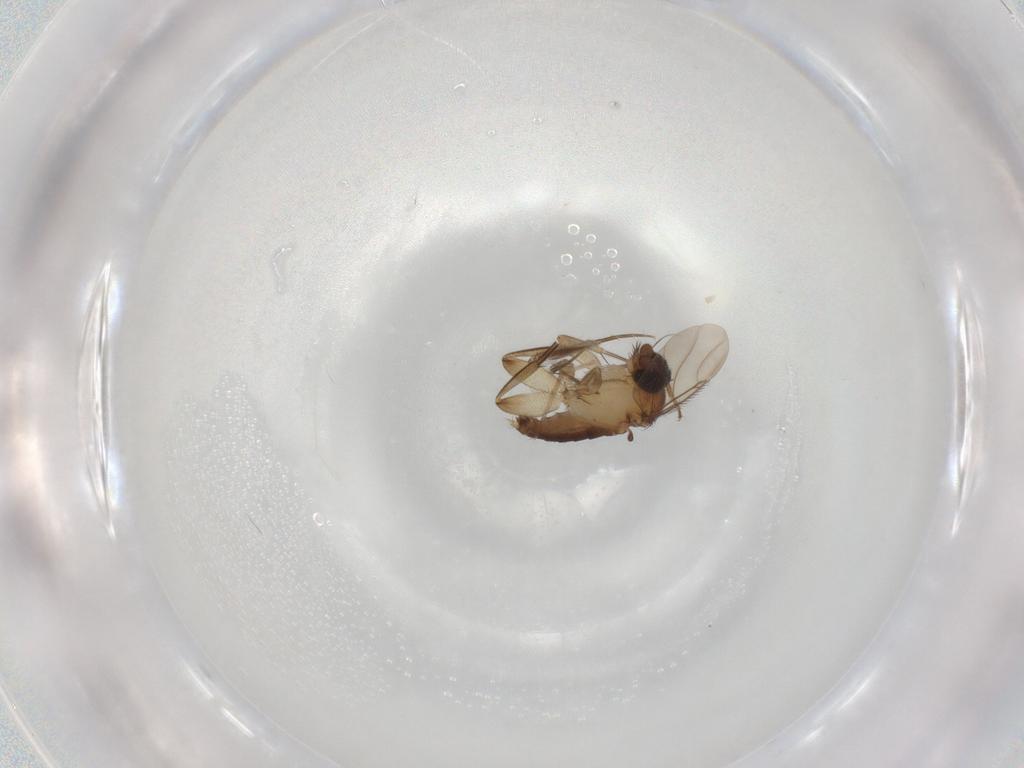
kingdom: Animalia
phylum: Arthropoda
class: Insecta
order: Diptera
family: Phoridae
